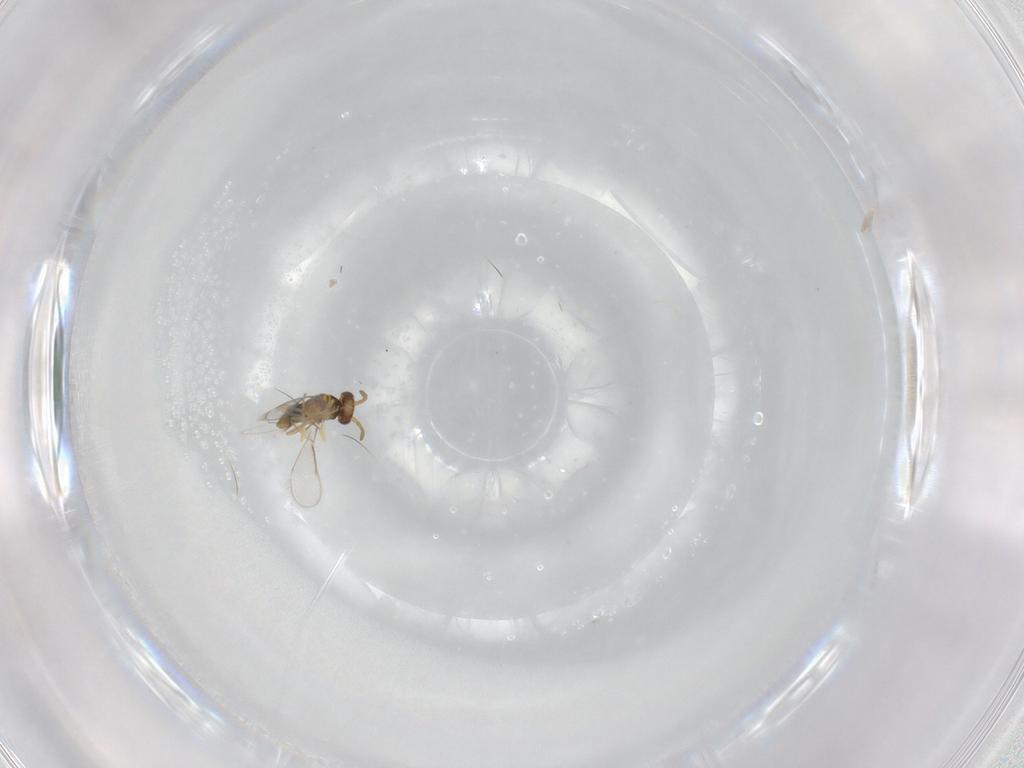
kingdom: Animalia
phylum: Arthropoda
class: Insecta
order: Hymenoptera
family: Aphelinidae
